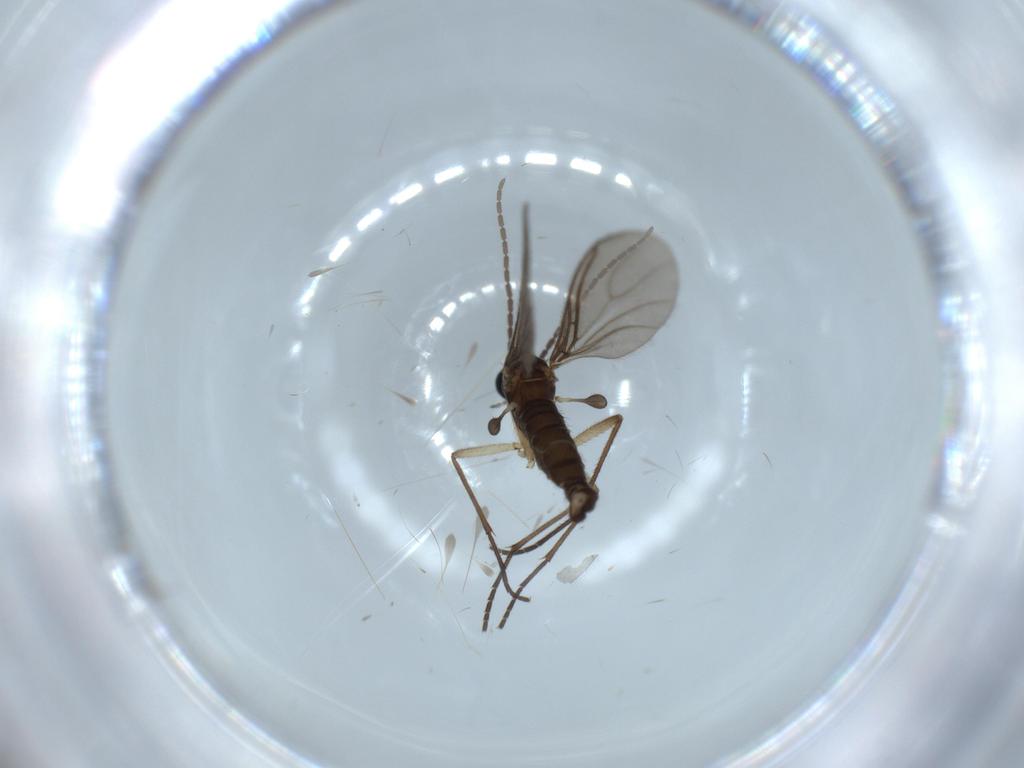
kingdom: Animalia
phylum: Arthropoda
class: Insecta
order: Diptera
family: Sciaridae
